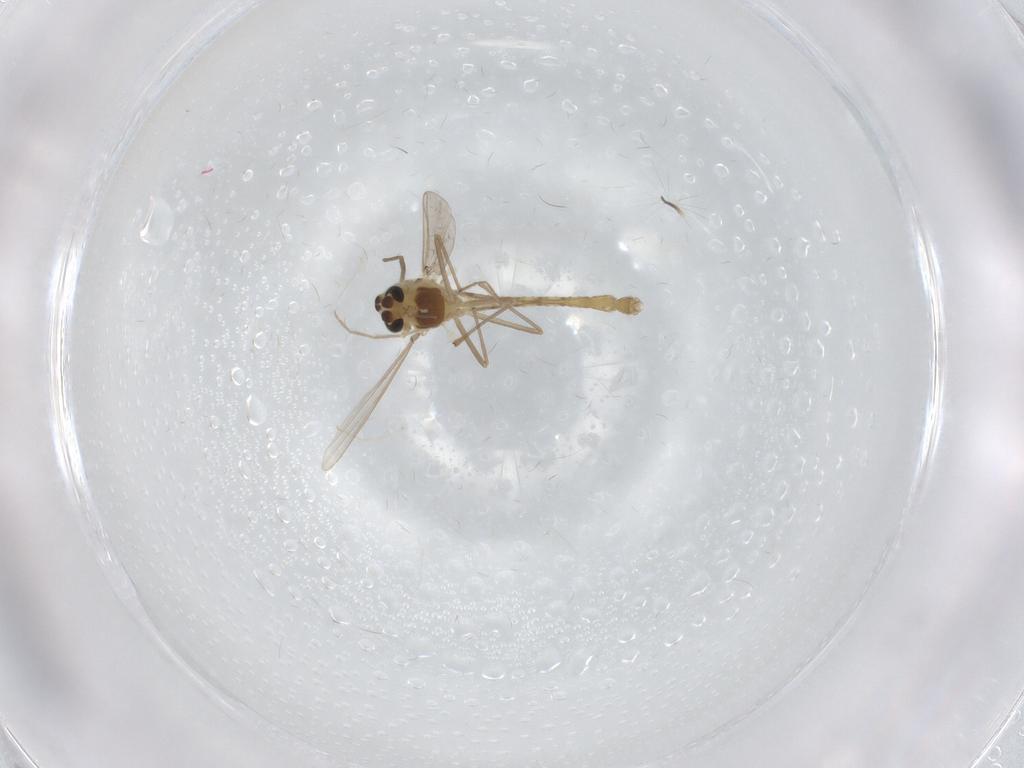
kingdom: Animalia
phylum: Arthropoda
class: Insecta
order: Diptera
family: Chironomidae
